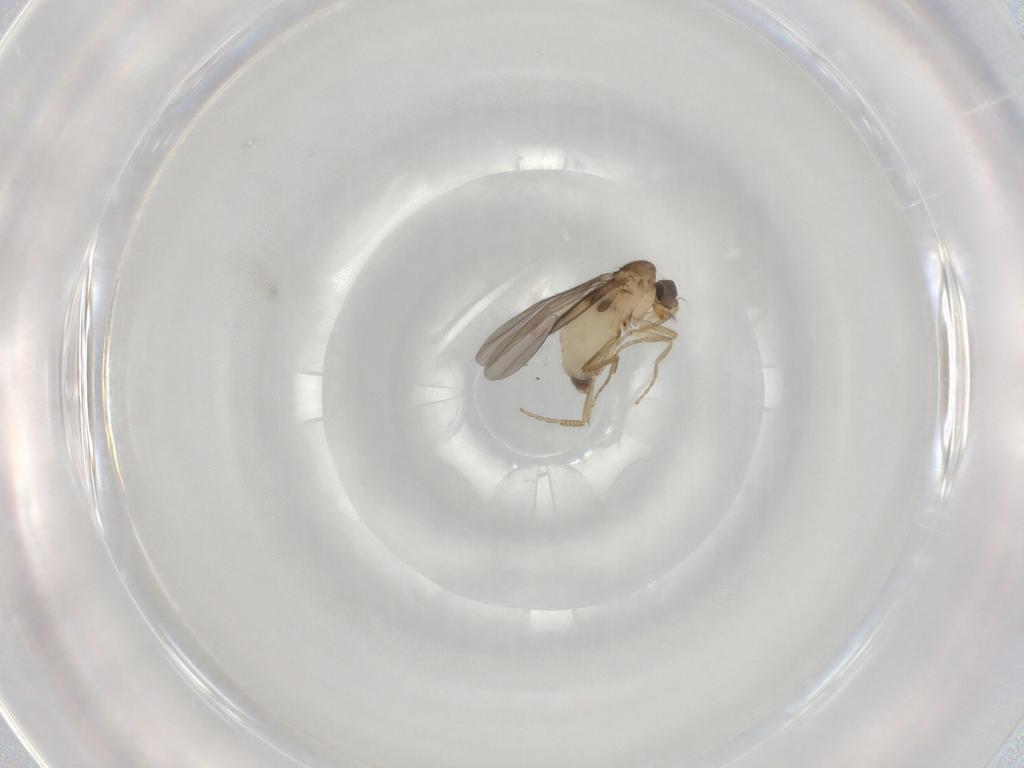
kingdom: Animalia
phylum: Arthropoda
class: Insecta
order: Diptera
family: Phoridae
